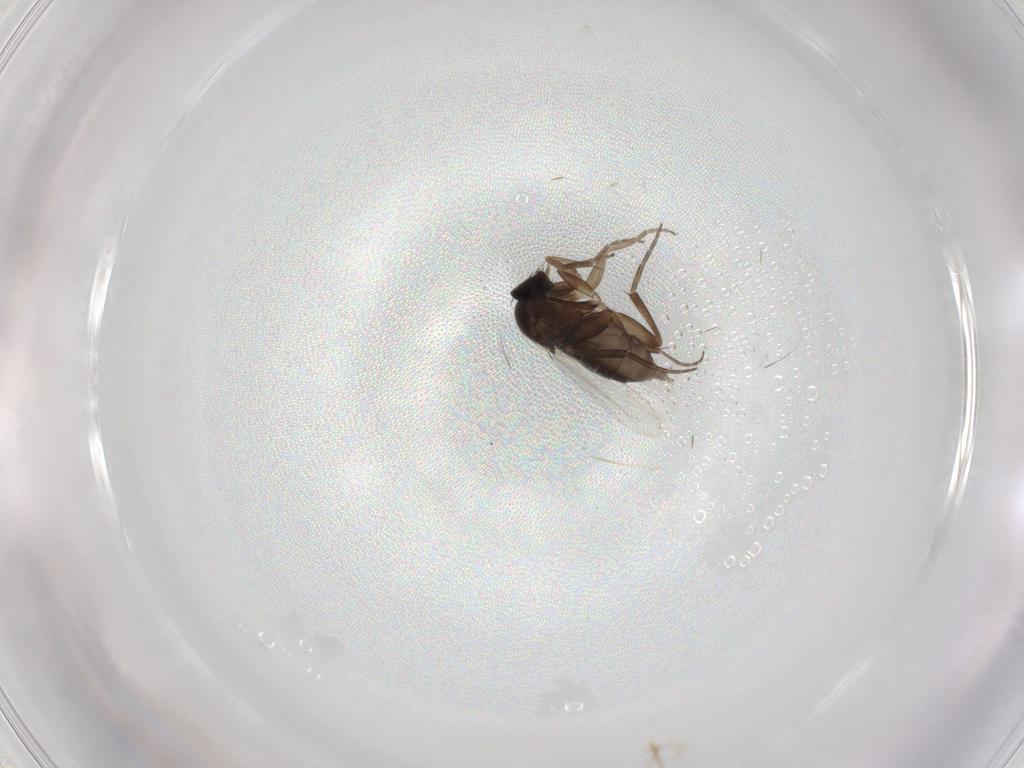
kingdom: Animalia
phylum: Arthropoda
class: Insecta
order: Diptera
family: Phoridae
